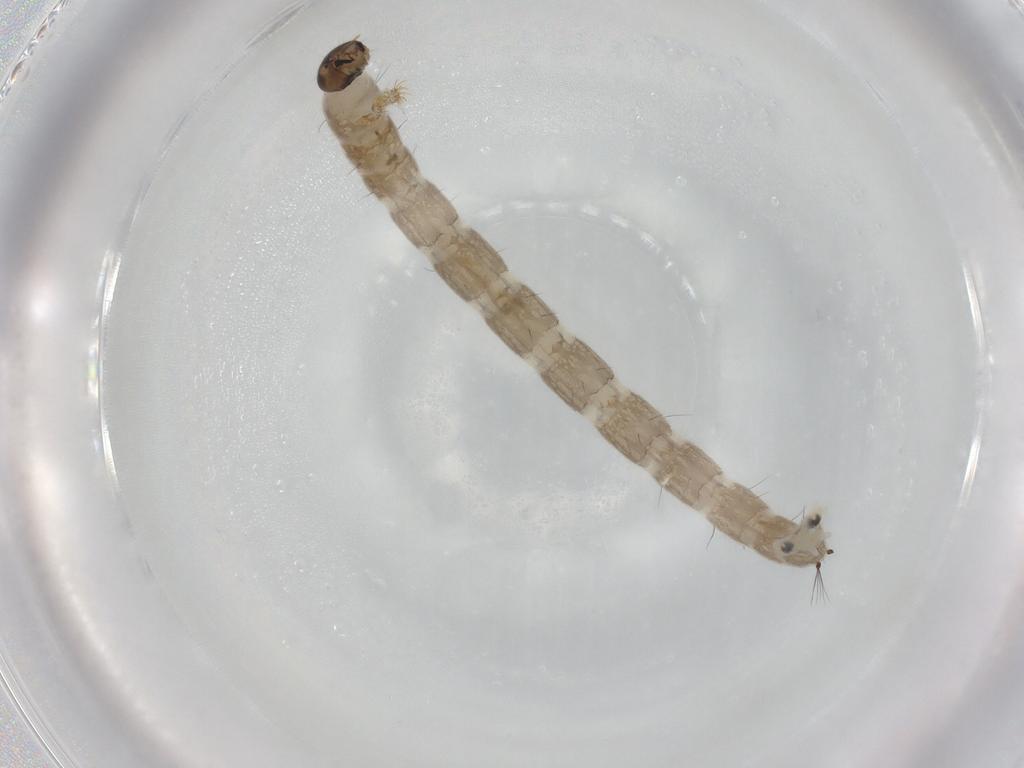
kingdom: Animalia
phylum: Arthropoda
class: Insecta
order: Diptera
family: Chironomidae
